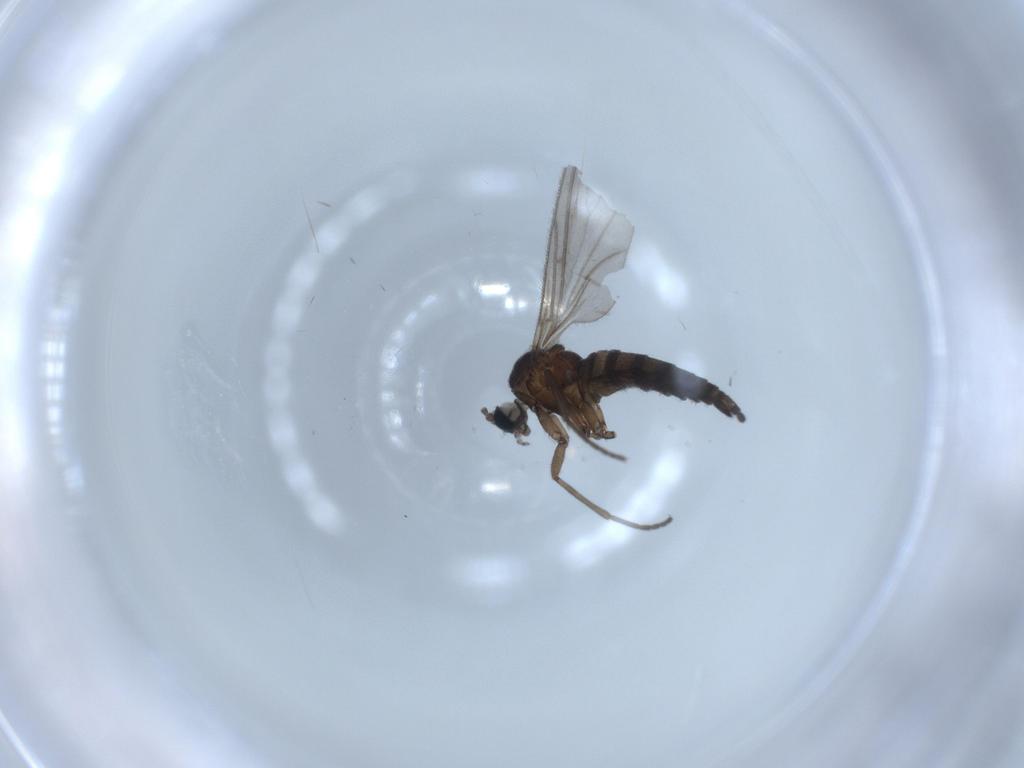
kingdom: Animalia
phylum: Arthropoda
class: Insecta
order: Diptera
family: Sciaridae
